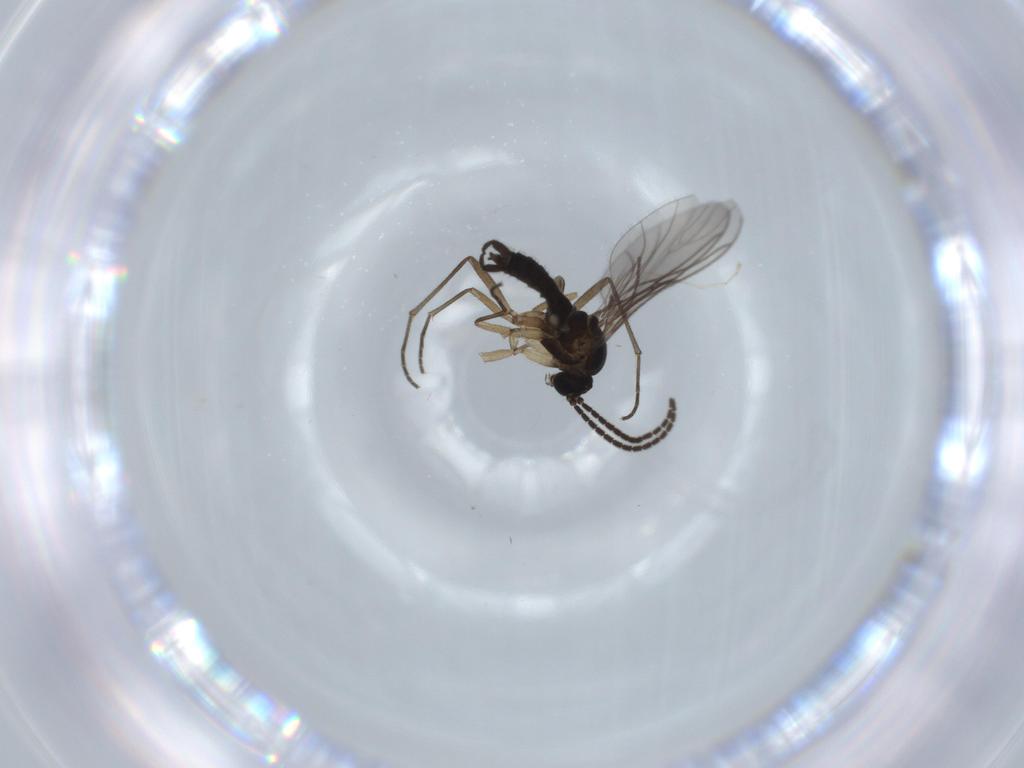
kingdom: Animalia
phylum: Arthropoda
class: Insecta
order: Diptera
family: Sciaridae
